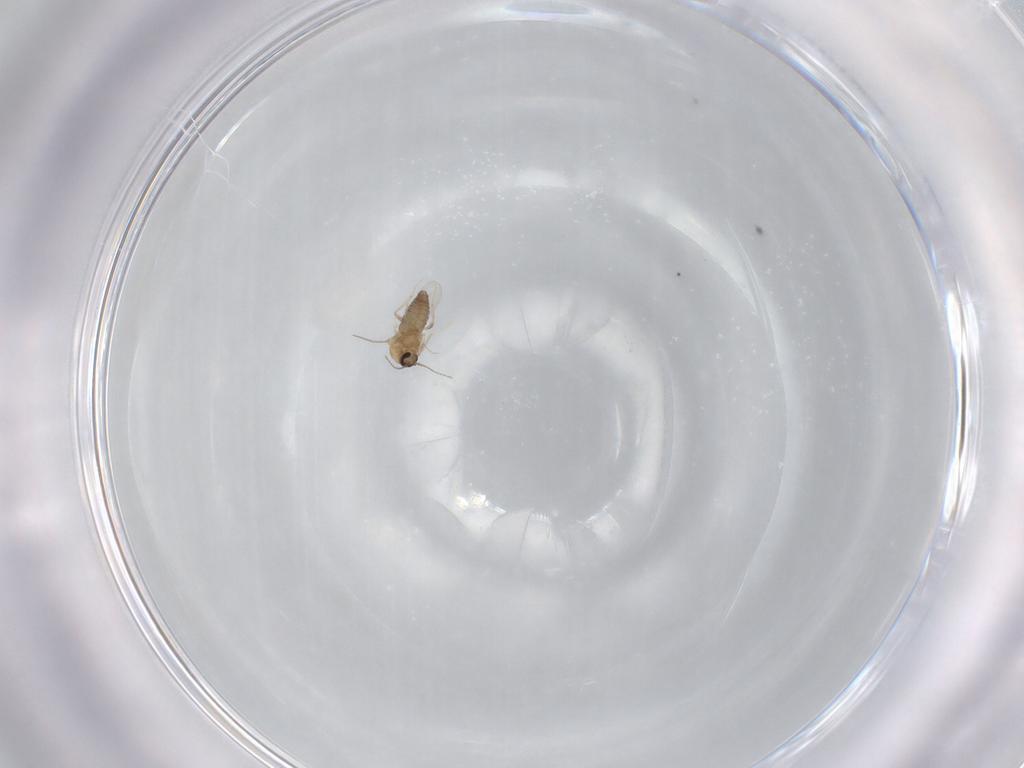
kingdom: Animalia
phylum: Arthropoda
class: Insecta
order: Diptera
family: Ceratopogonidae
